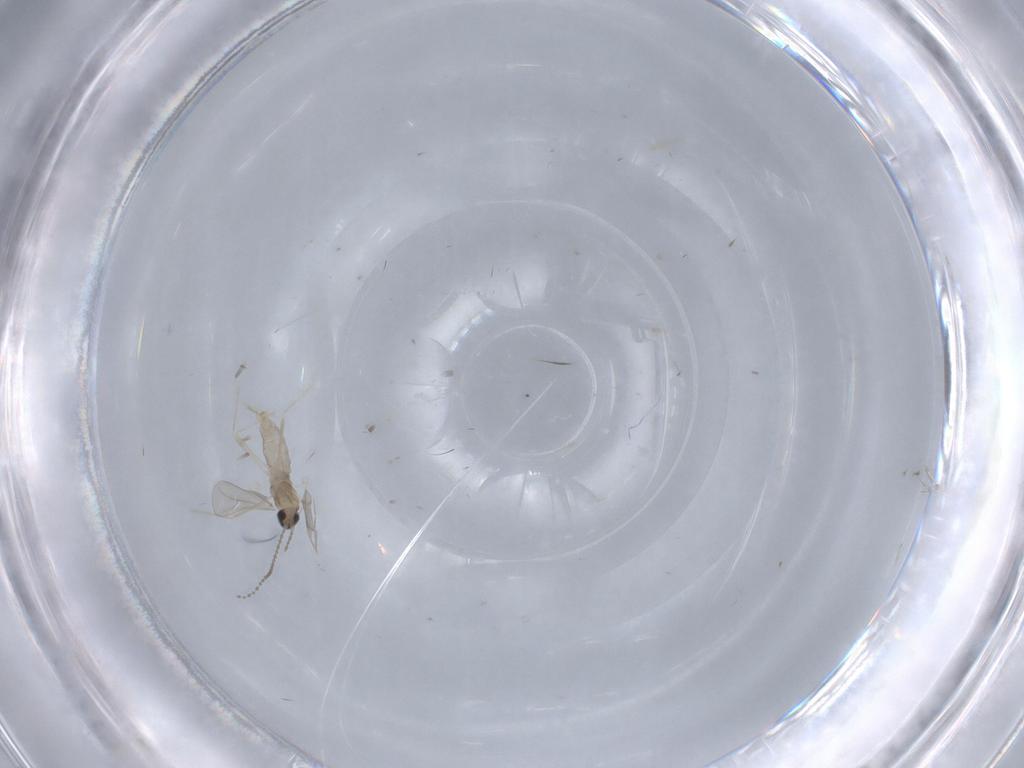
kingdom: Animalia
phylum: Arthropoda
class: Insecta
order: Diptera
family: Cecidomyiidae
